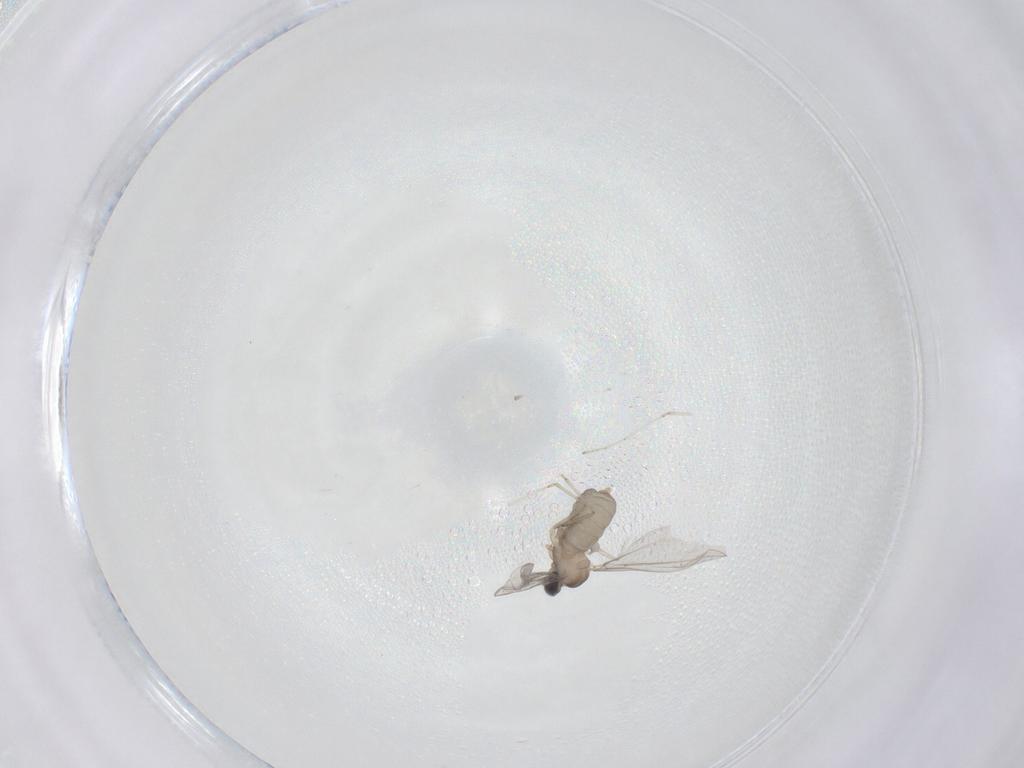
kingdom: Animalia
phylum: Arthropoda
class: Insecta
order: Diptera
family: Cecidomyiidae
